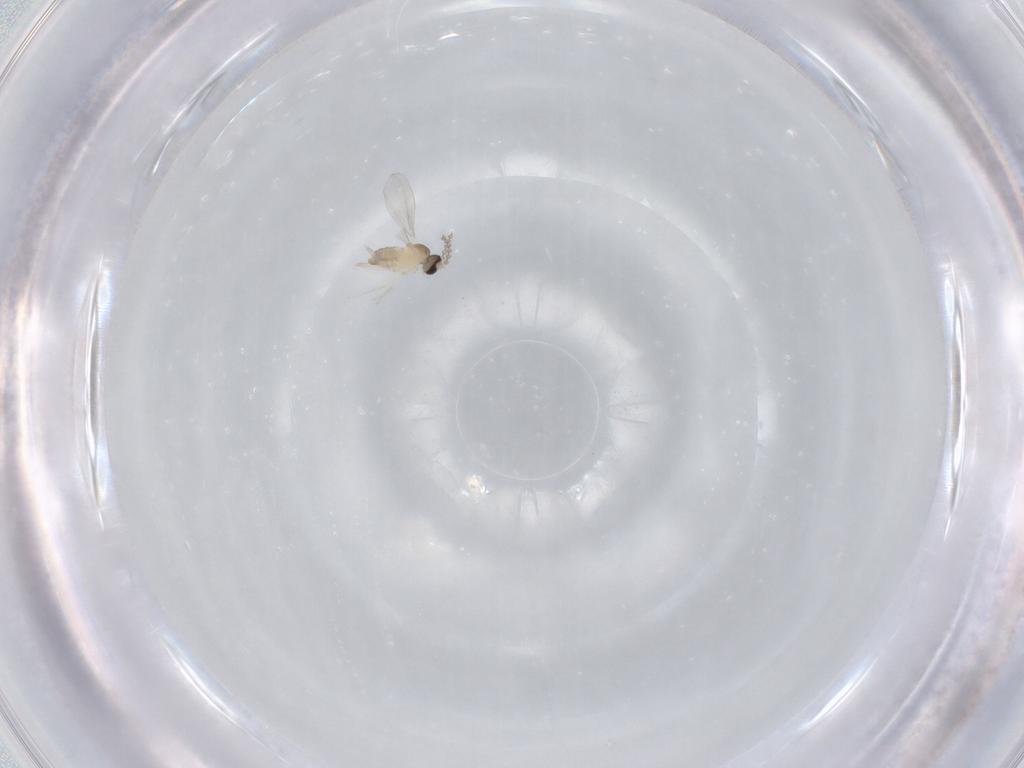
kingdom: Animalia
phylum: Arthropoda
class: Insecta
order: Diptera
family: Cecidomyiidae
